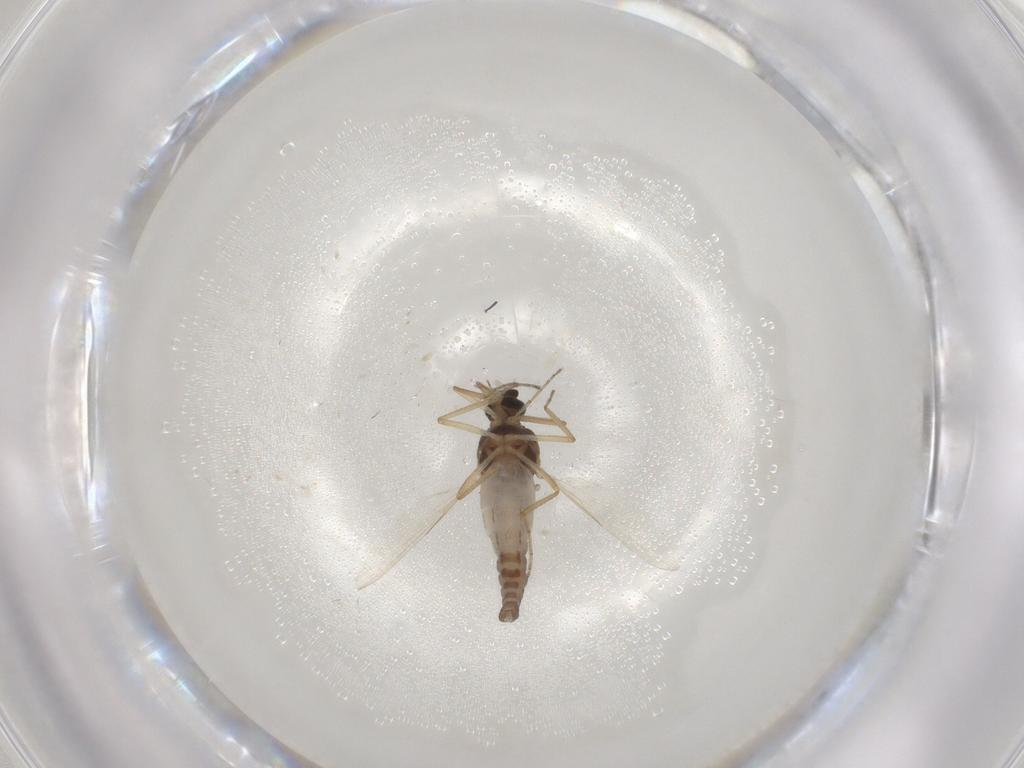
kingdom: Animalia
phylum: Arthropoda
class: Insecta
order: Diptera
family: Ceratopogonidae
